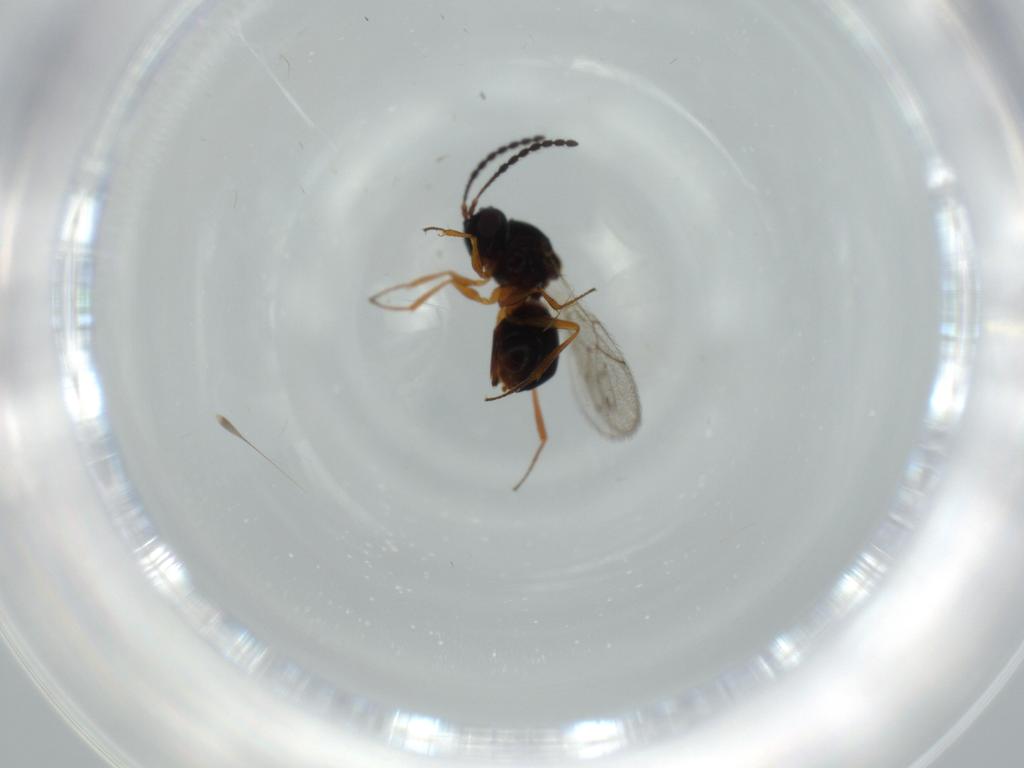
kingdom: Animalia
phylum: Arthropoda
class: Insecta
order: Hymenoptera
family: Figitidae
